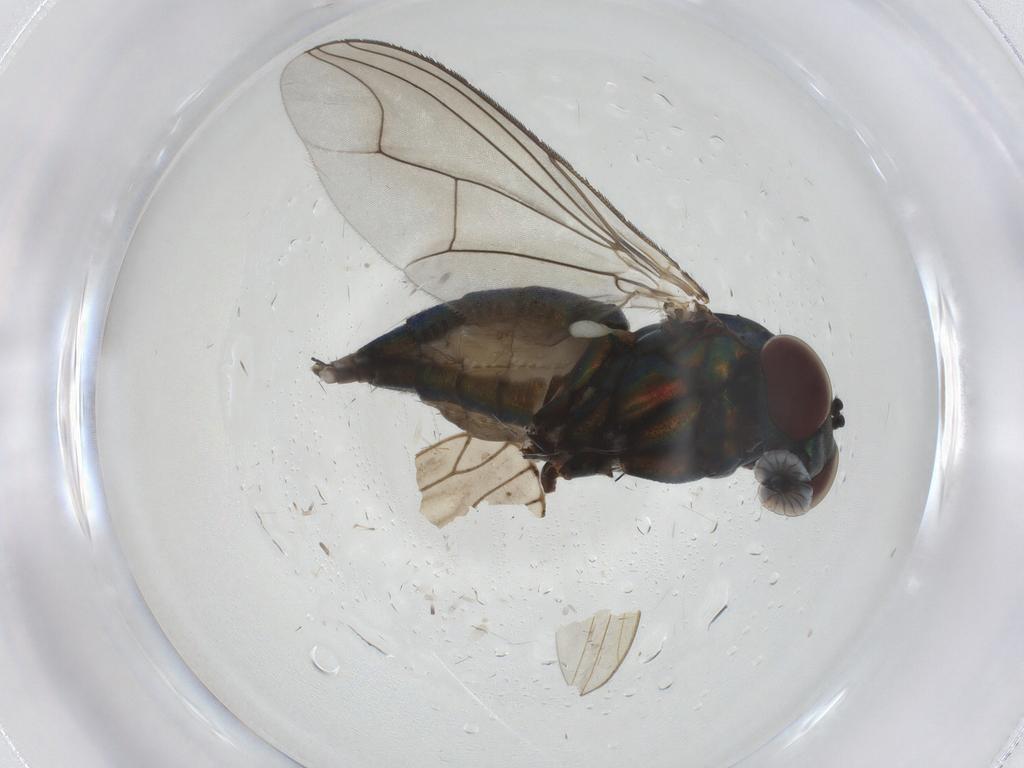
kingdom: Animalia
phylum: Arthropoda
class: Insecta
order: Diptera
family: Dolichopodidae
